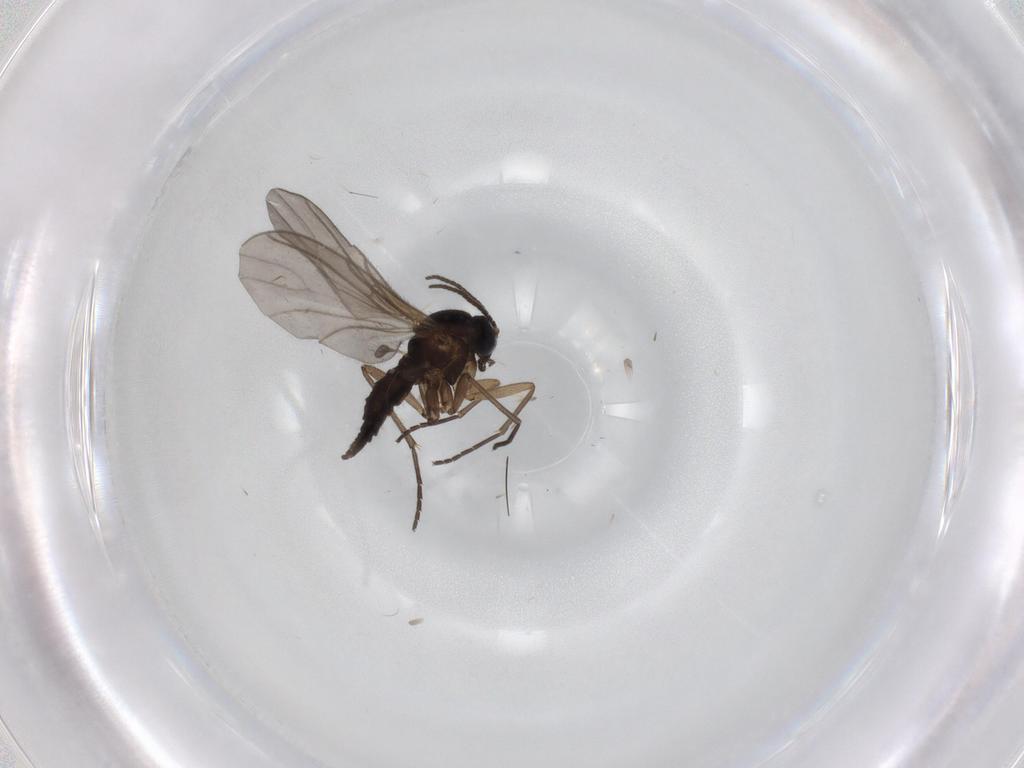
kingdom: Animalia
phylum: Arthropoda
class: Insecta
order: Diptera
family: Sciaridae
